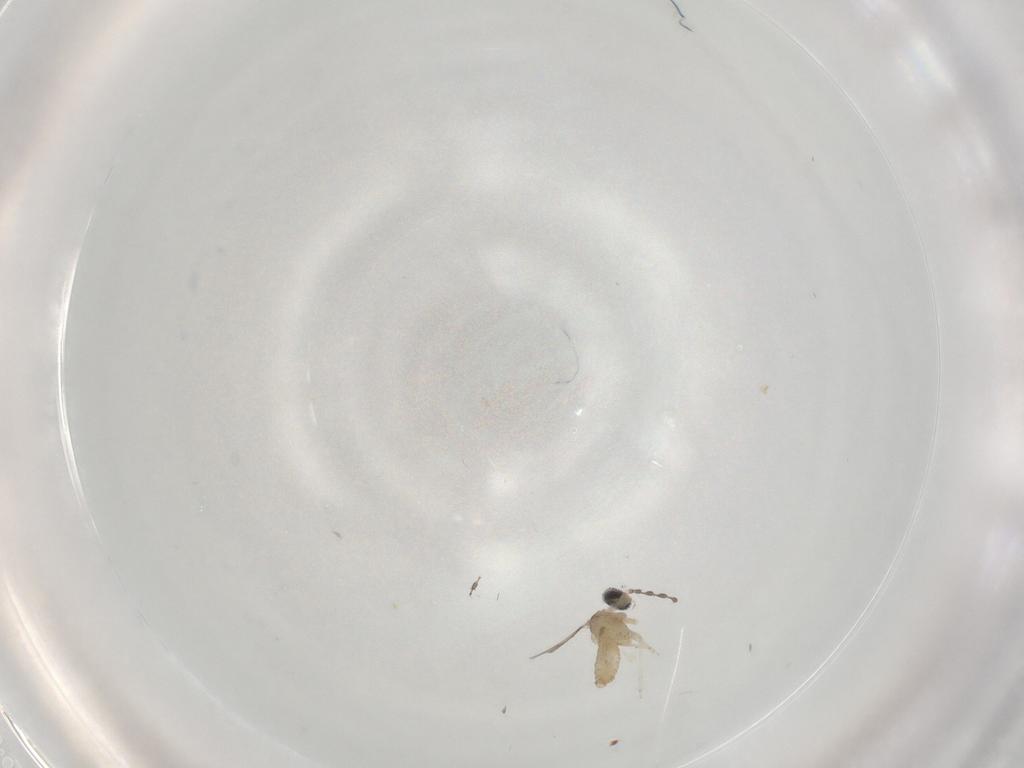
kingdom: Animalia
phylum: Arthropoda
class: Insecta
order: Diptera
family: Cecidomyiidae
